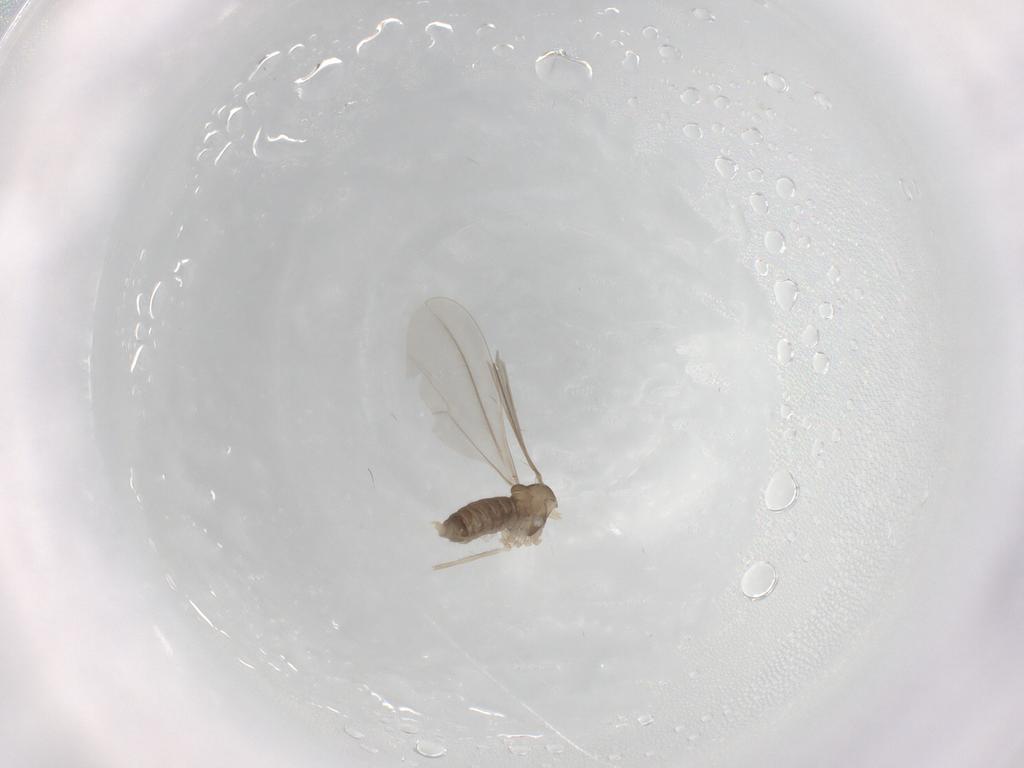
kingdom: Animalia
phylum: Arthropoda
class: Insecta
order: Diptera
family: Cecidomyiidae
